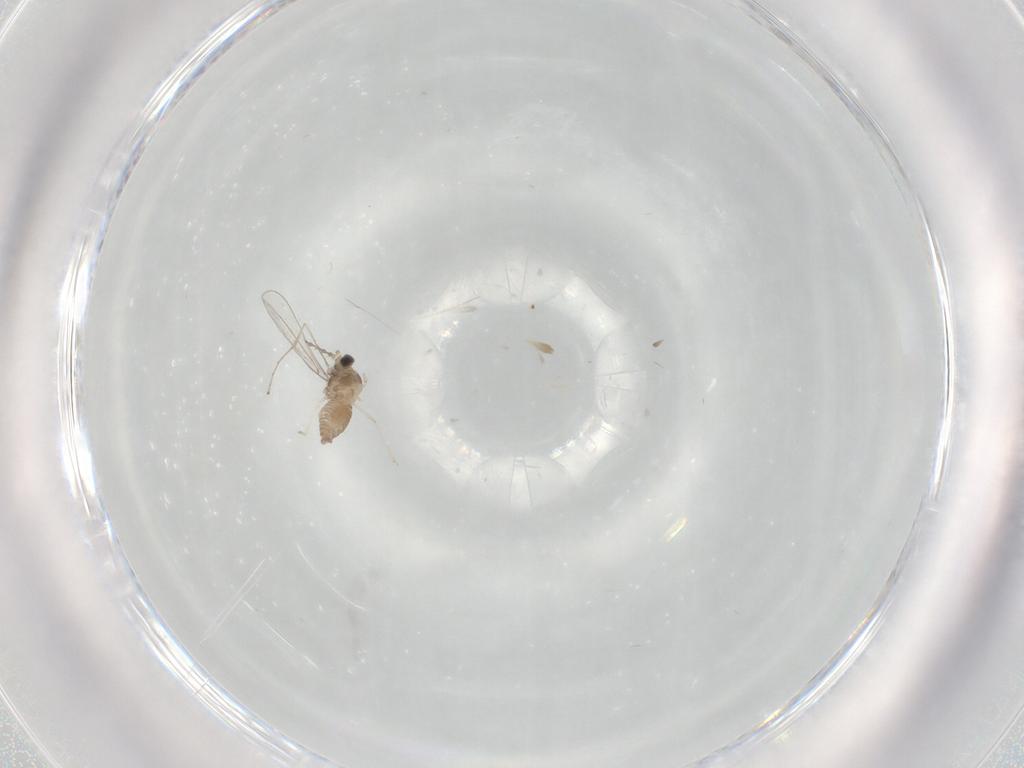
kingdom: Animalia
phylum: Arthropoda
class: Insecta
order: Diptera
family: Cecidomyiidae
